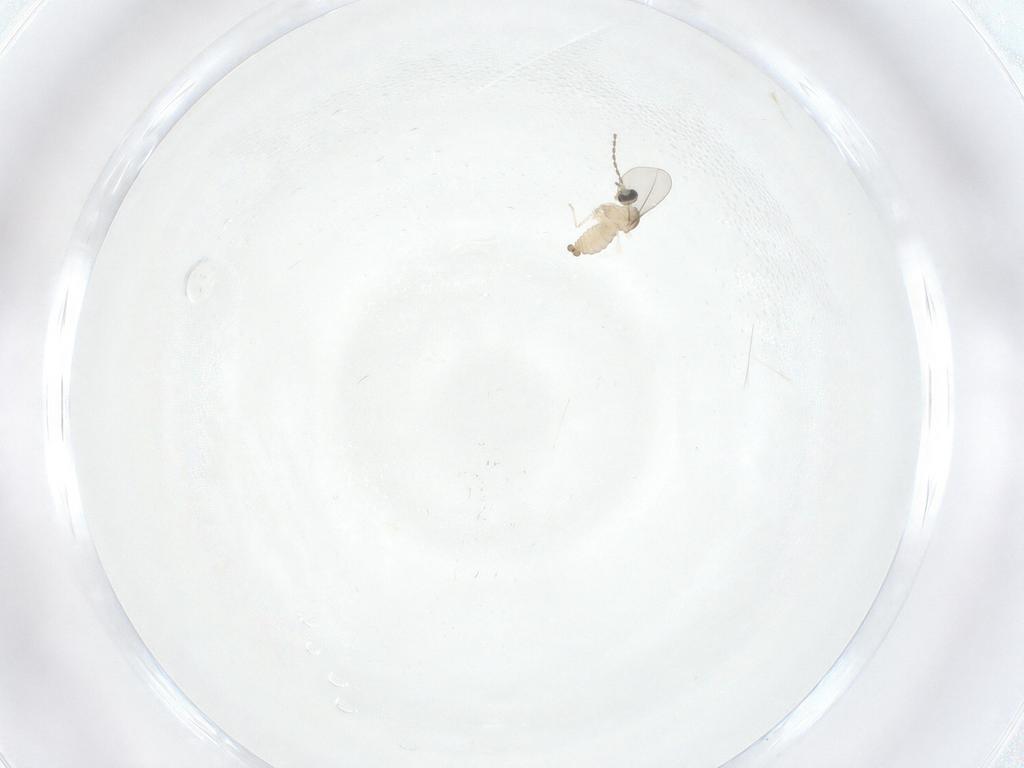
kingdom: Animalia
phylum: Arthropoda
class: Insecta
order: Diptera
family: Cecidomyiidae
